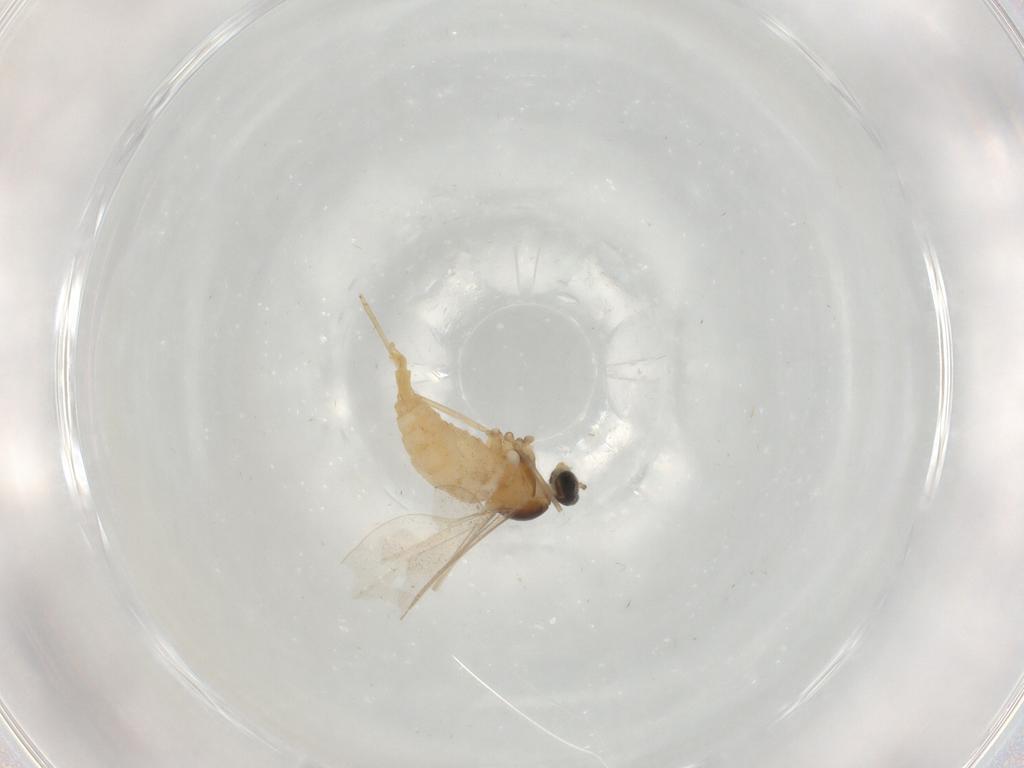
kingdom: Animalia
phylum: Arthropoda
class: Insecta
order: Diptera
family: Cecidomyiidae
